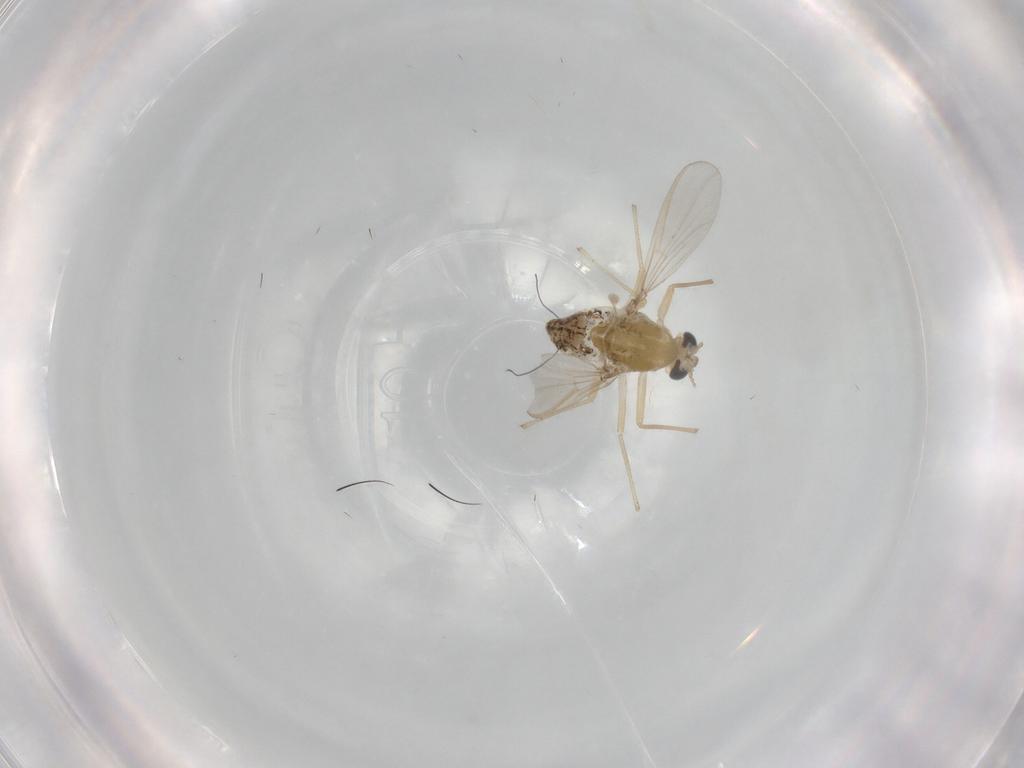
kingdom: Animalia
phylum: Arthropoda
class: Insecta
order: Diptera
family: Chironomidae
